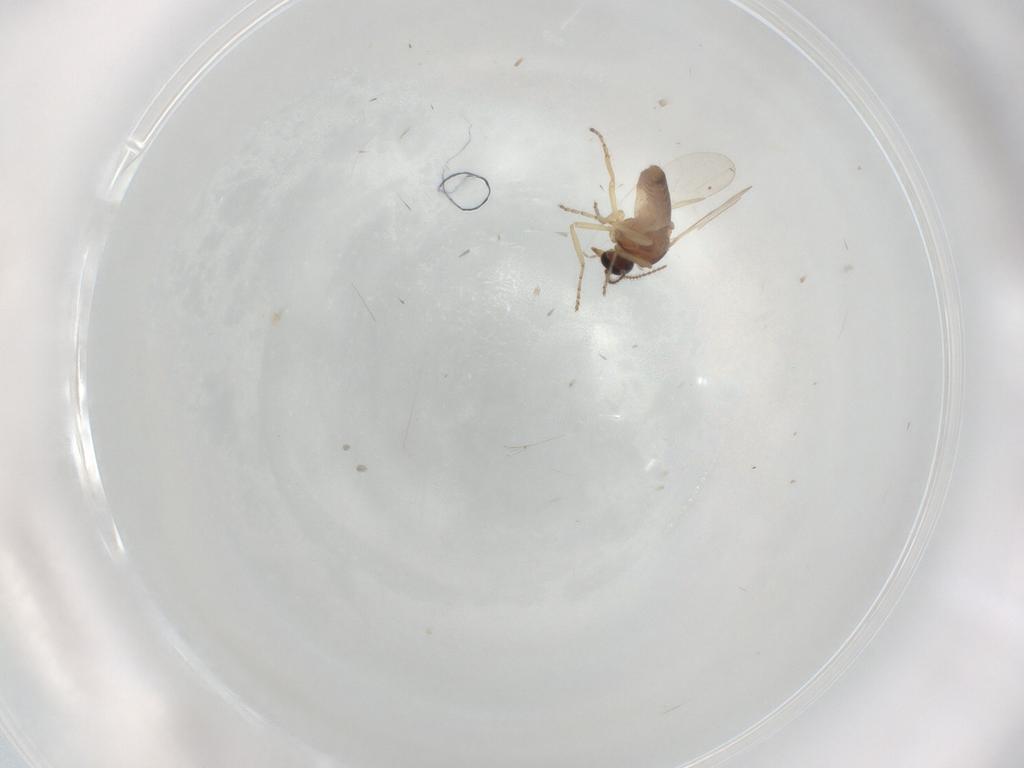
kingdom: Animalia
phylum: Arthropoda
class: Insecta
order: Diptera
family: Ceratopogonidae
